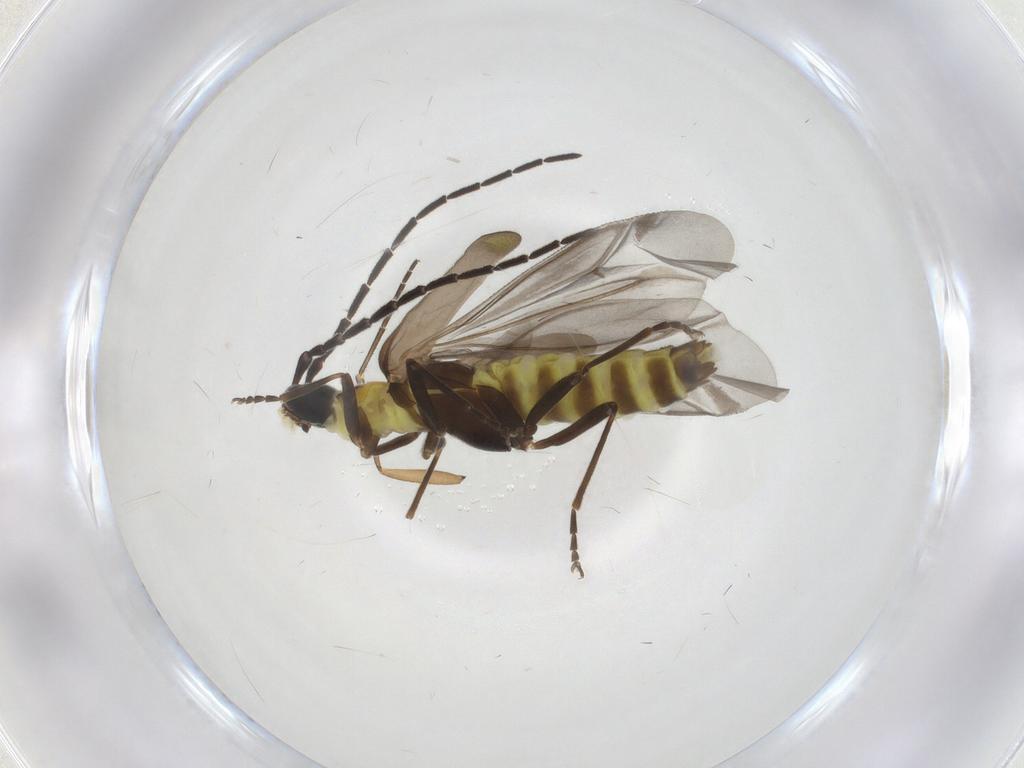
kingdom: Animalia
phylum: Arthropoda
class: Insecta
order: Coleoptera
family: Cantharidae
